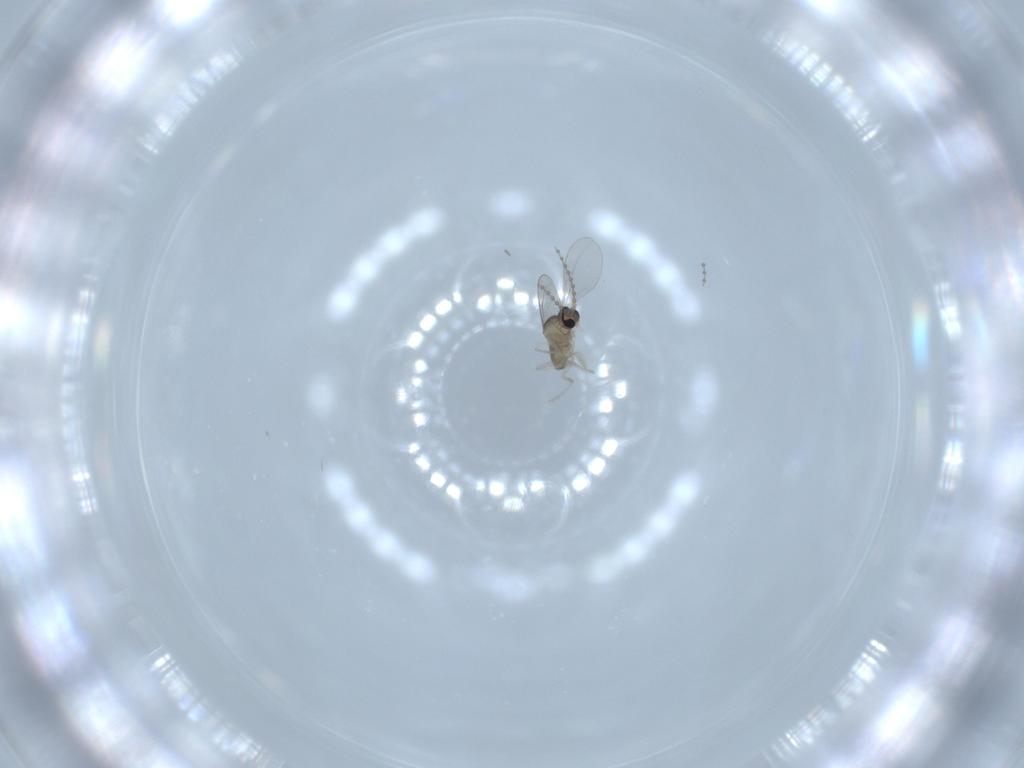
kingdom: Animalia
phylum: Arthropoda
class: Insecta
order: Diptera
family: Cecidomyiidae
